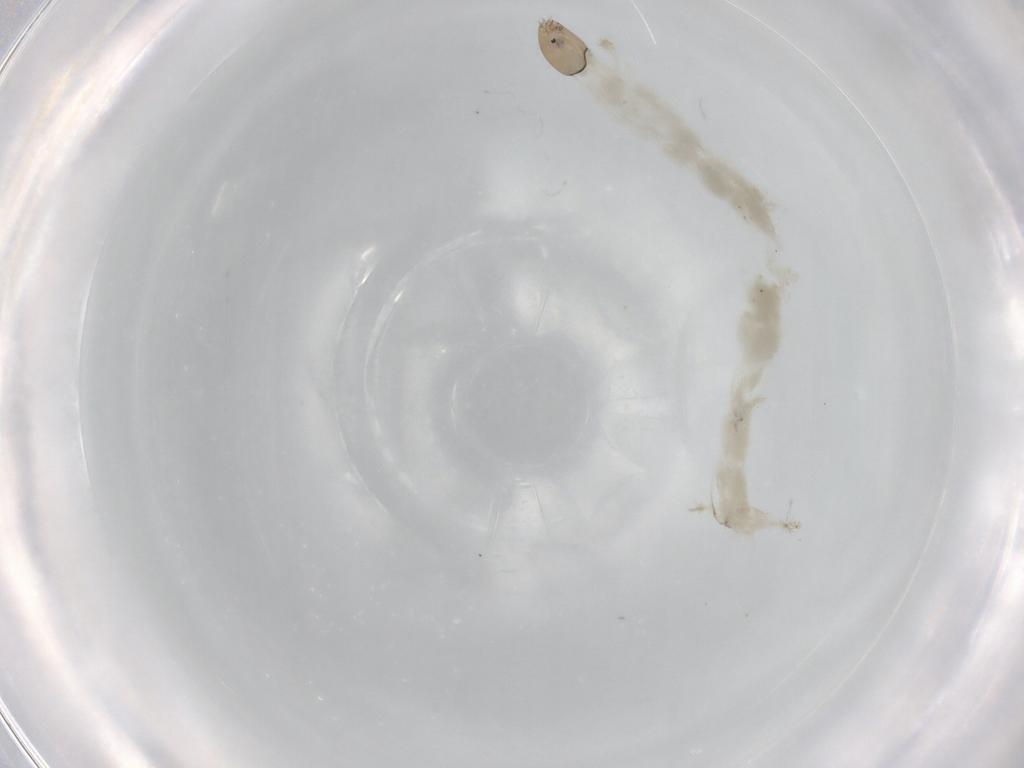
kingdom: Animalia
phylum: Arthropoda
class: Insecta
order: Diptera
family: Chironomidae
